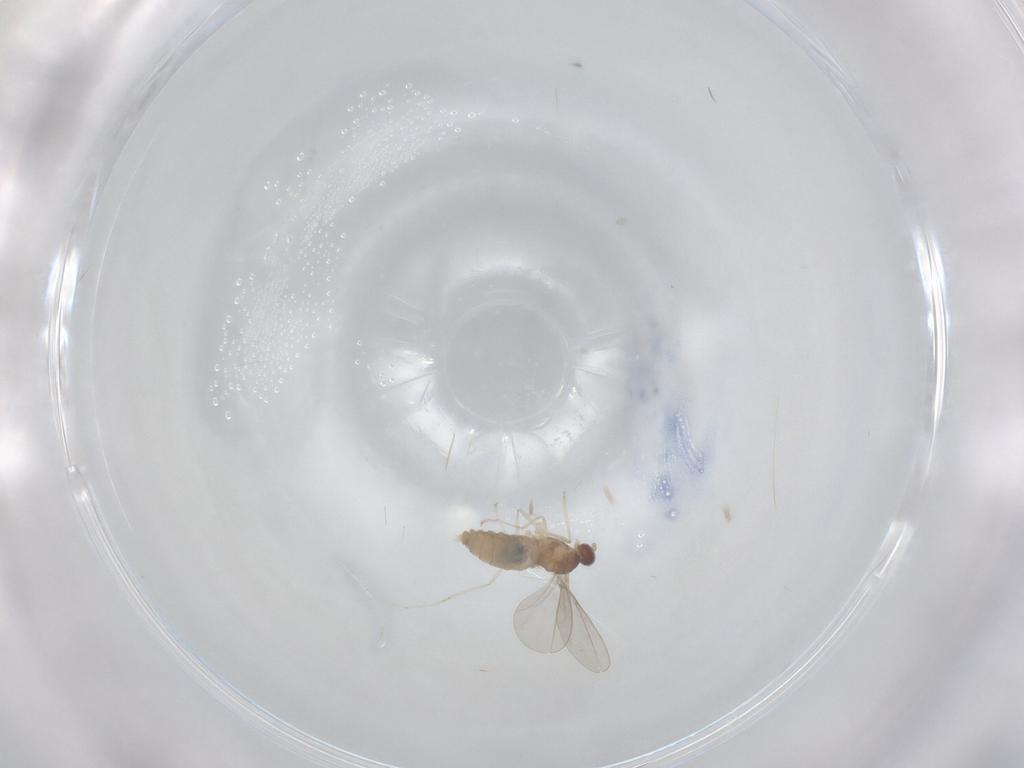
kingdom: Animalia
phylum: Arthropoda
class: Insecta
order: Diptera
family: Cecidomyiidae
